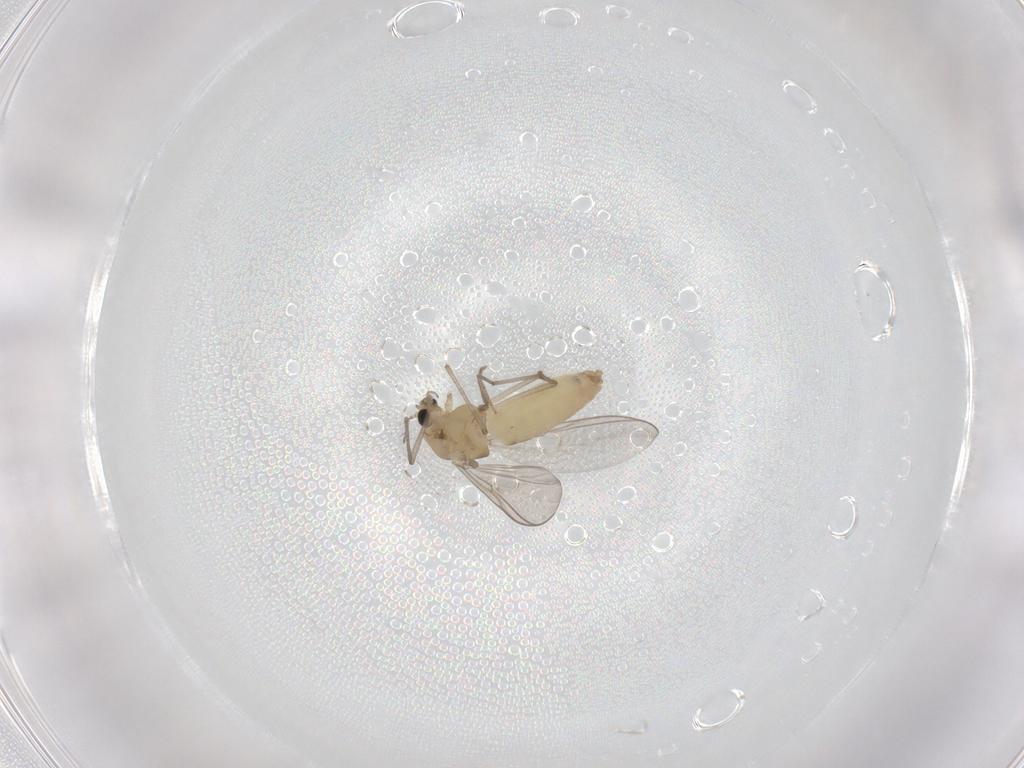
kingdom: Animalia
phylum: Arthropoda
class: Insecta
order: Diptera
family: Chironomidae
